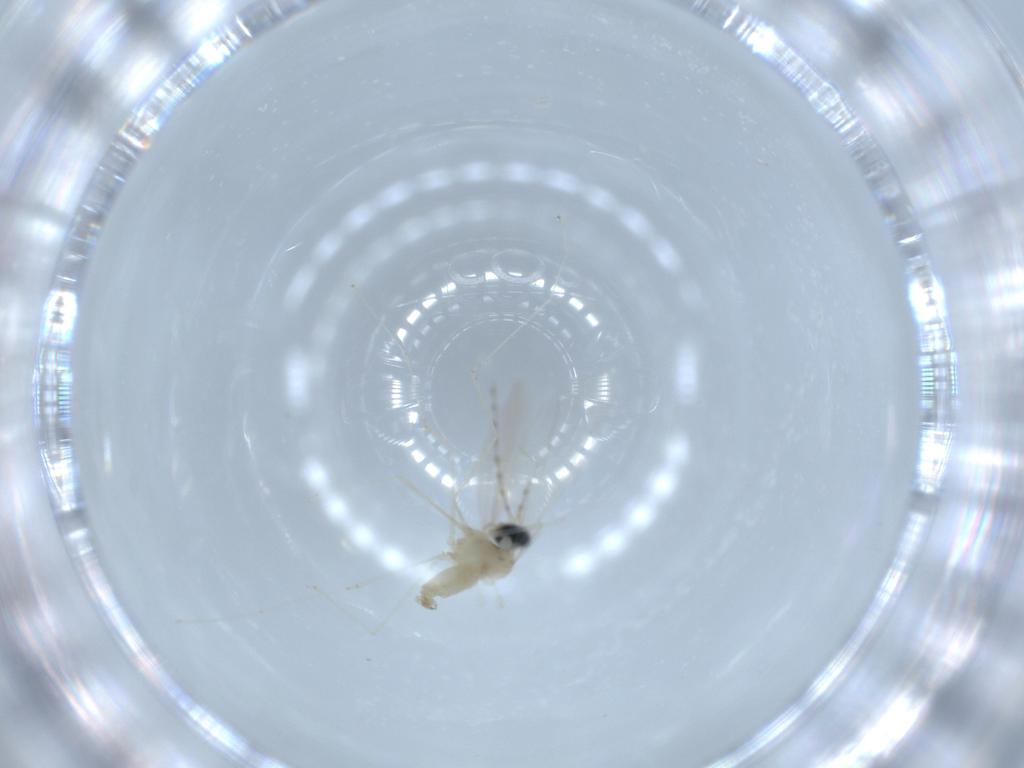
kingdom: Animalia
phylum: Arthropoda
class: Insecta
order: Diptera
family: Cecidomyiidae
